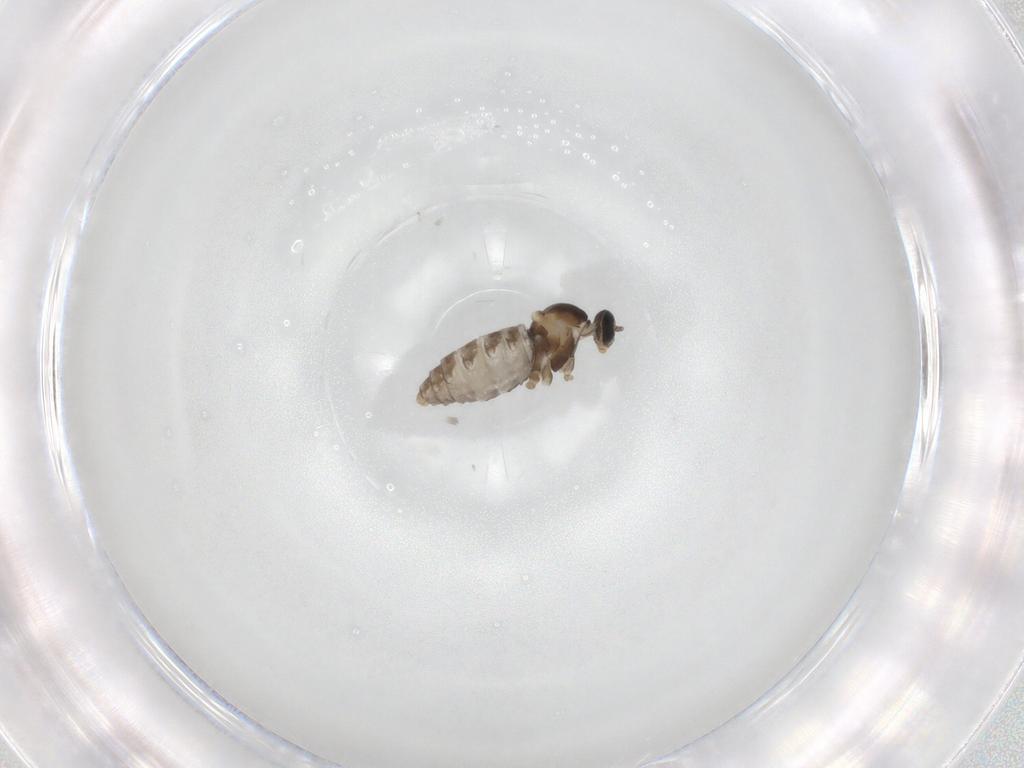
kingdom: Animalia
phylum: Arthropoda
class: Insecta
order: Diptera
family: Cecidomyiidae
